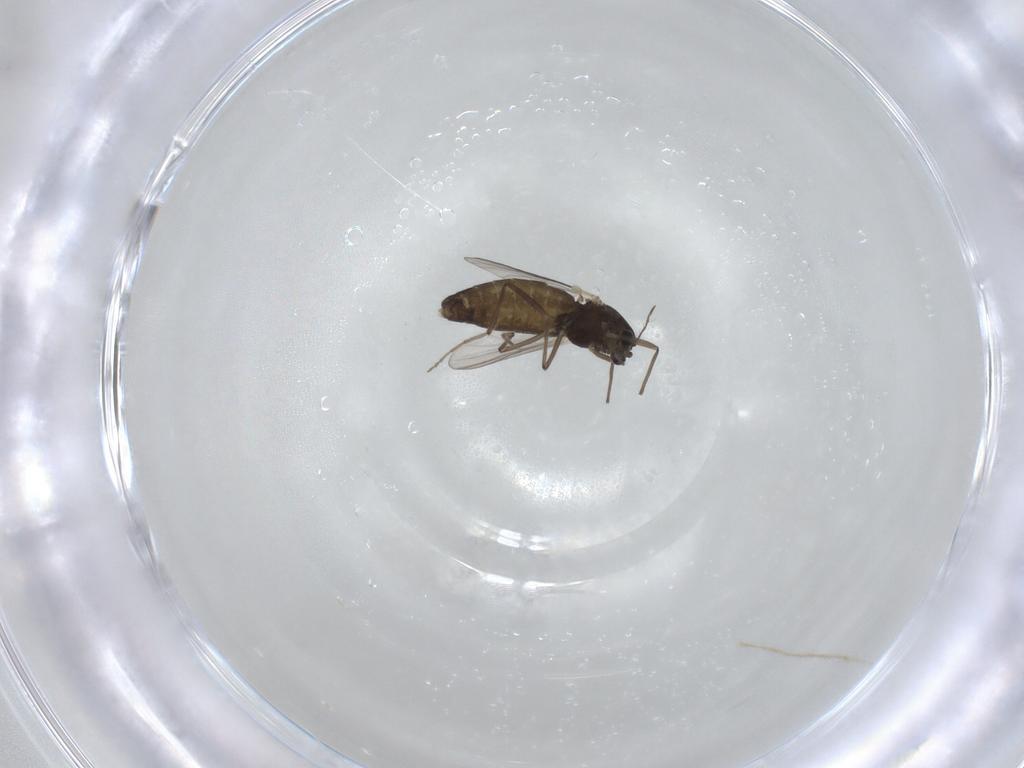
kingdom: Animalia
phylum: Arthropoda
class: Insecta
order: Diptera
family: Chironomidae
